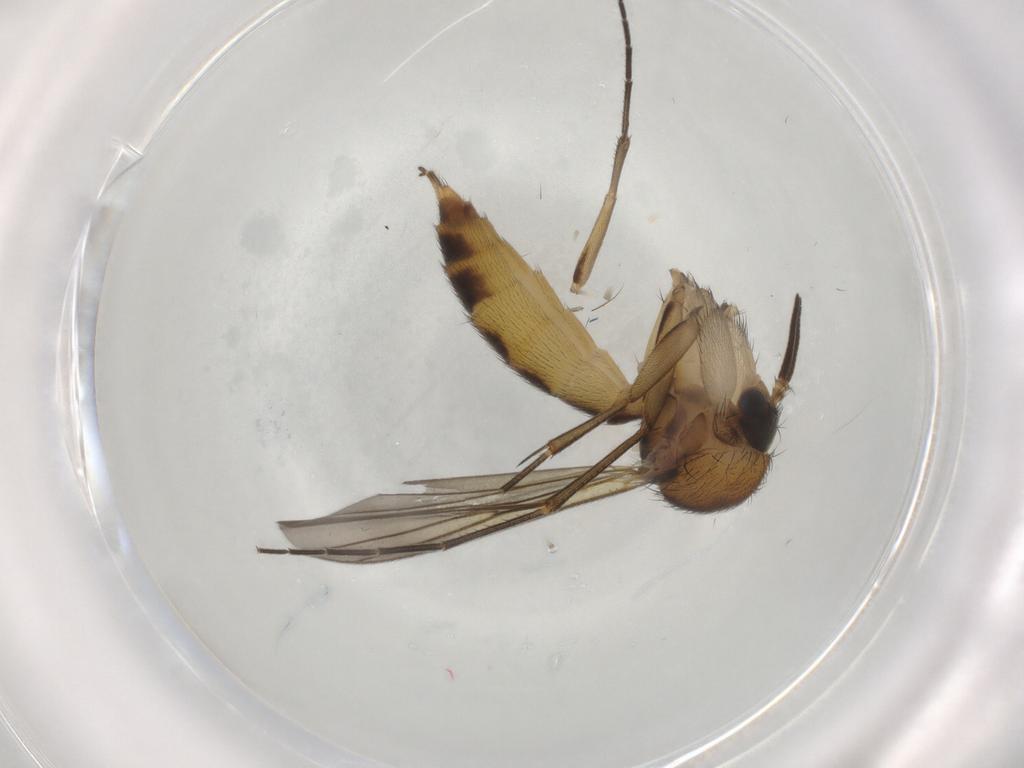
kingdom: Animalia
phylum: Arthropoda
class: Insecta
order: Diptera
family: Mycetophilidae
